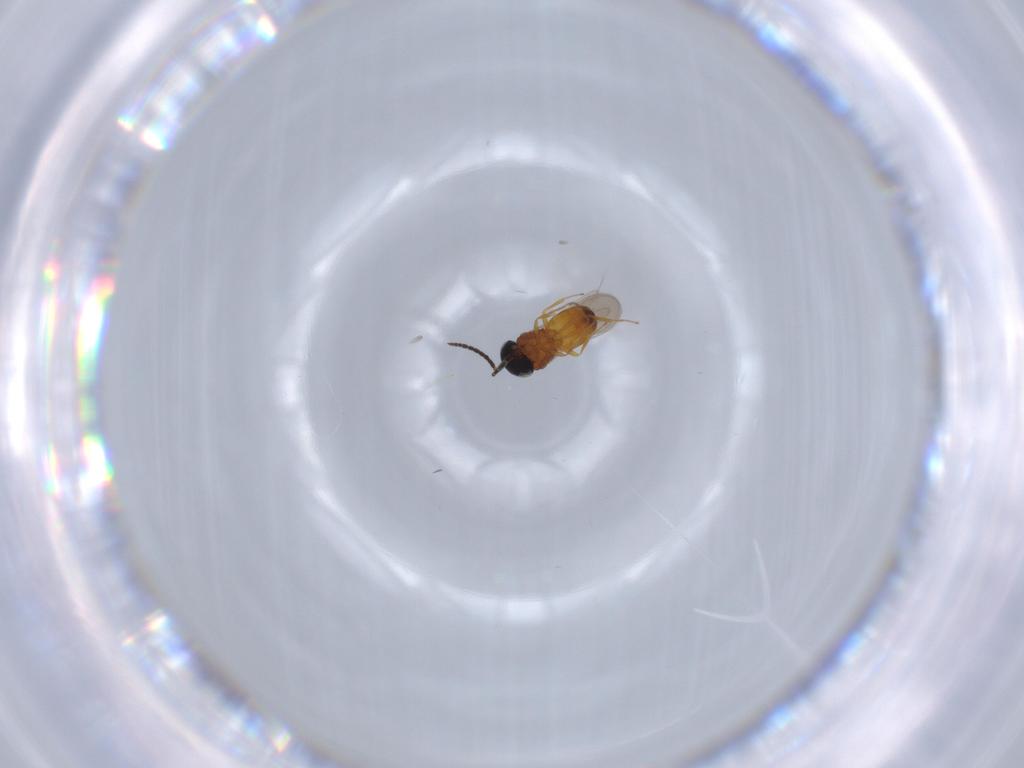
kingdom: Animalia
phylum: Arthropoda
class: Insecta
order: Hymenoptera
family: Scelionidae
